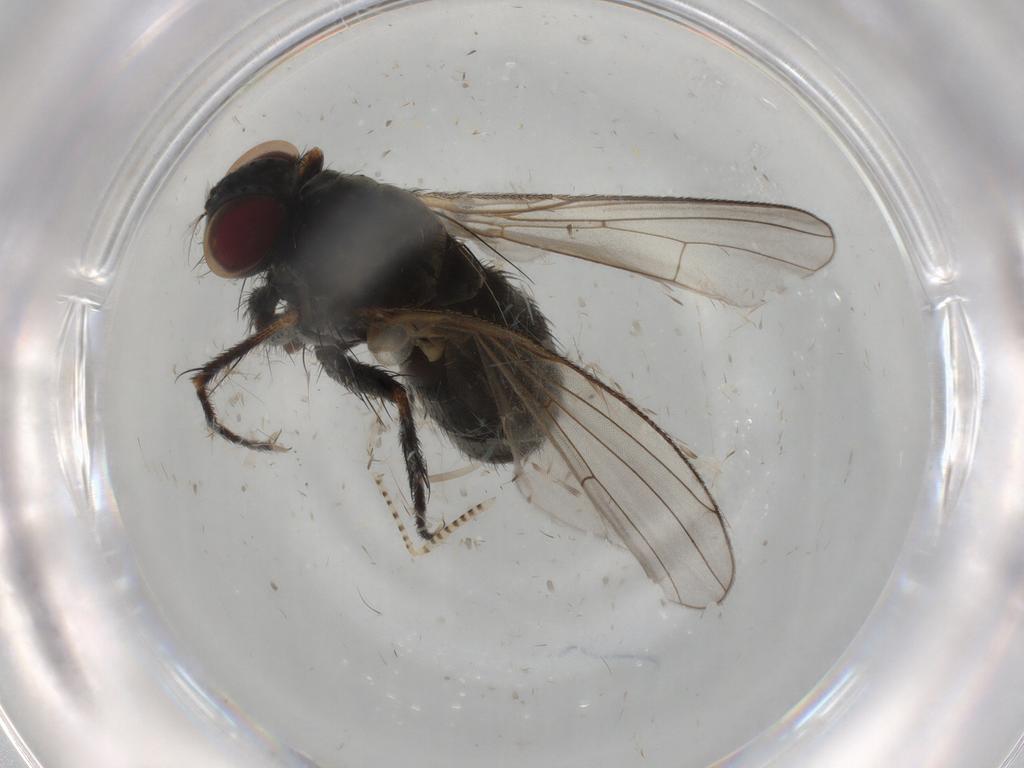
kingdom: Animalia
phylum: Arthropoda
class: Insecta
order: Diptera
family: Muscidae
